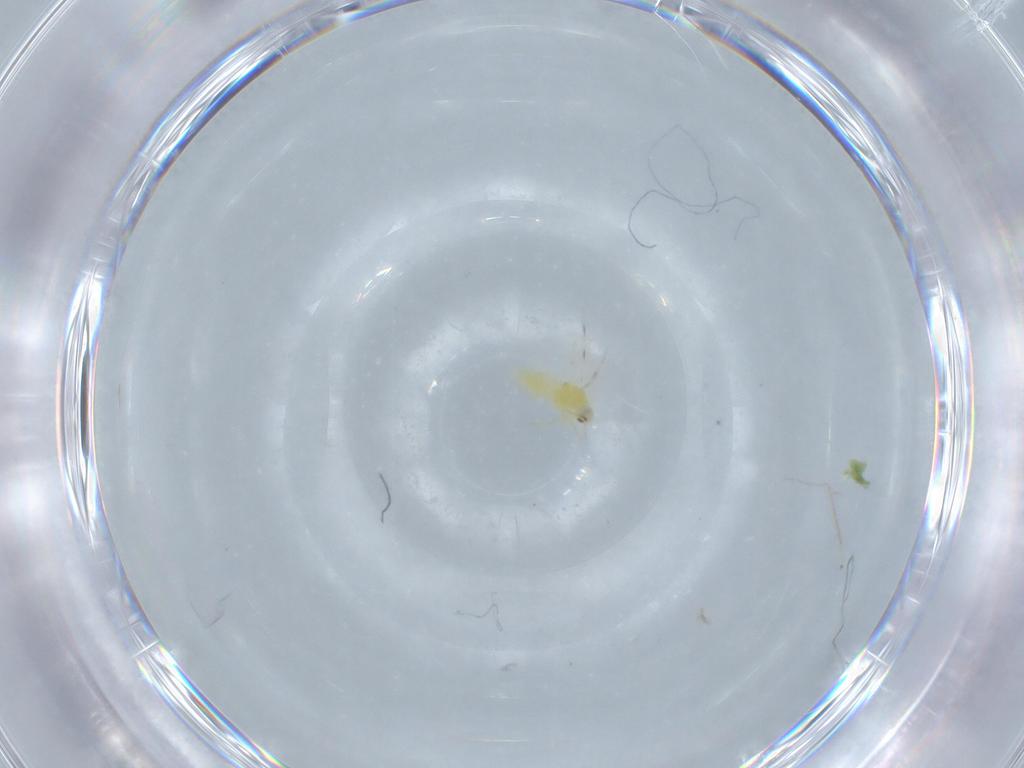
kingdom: Animalia
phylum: Arthropoda
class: Insecta
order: Hemiptera
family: Aleyrodidae
